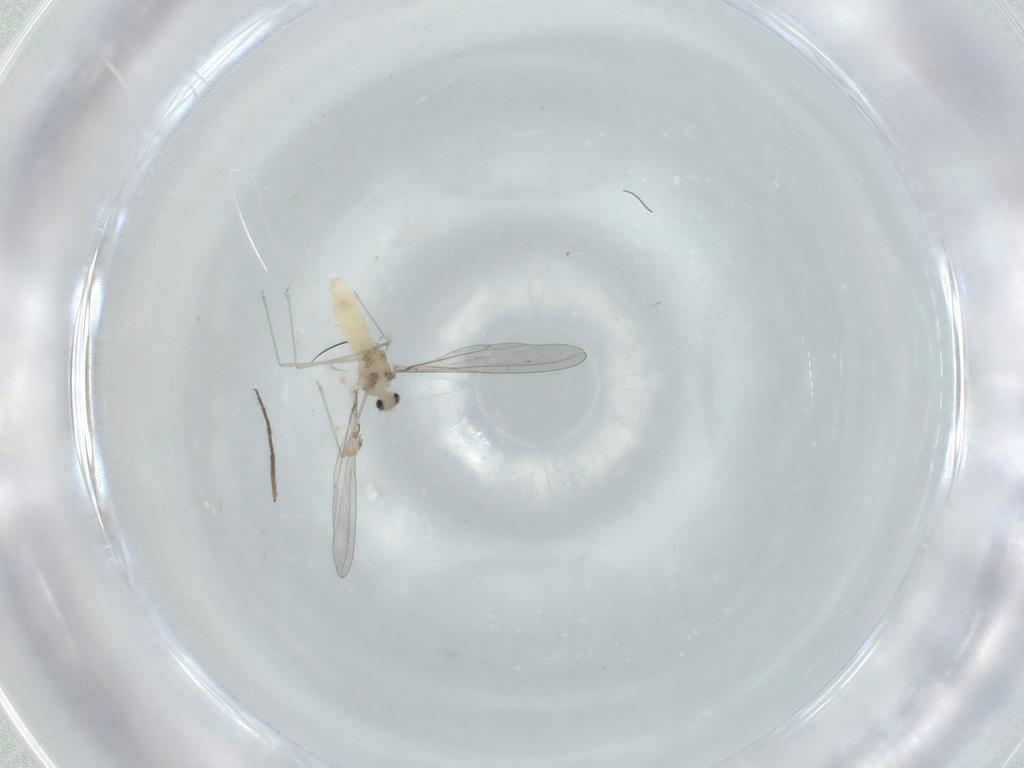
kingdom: Animalia
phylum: Arthropoda
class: Insecta
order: Diptera
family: Cecidomyiidae
